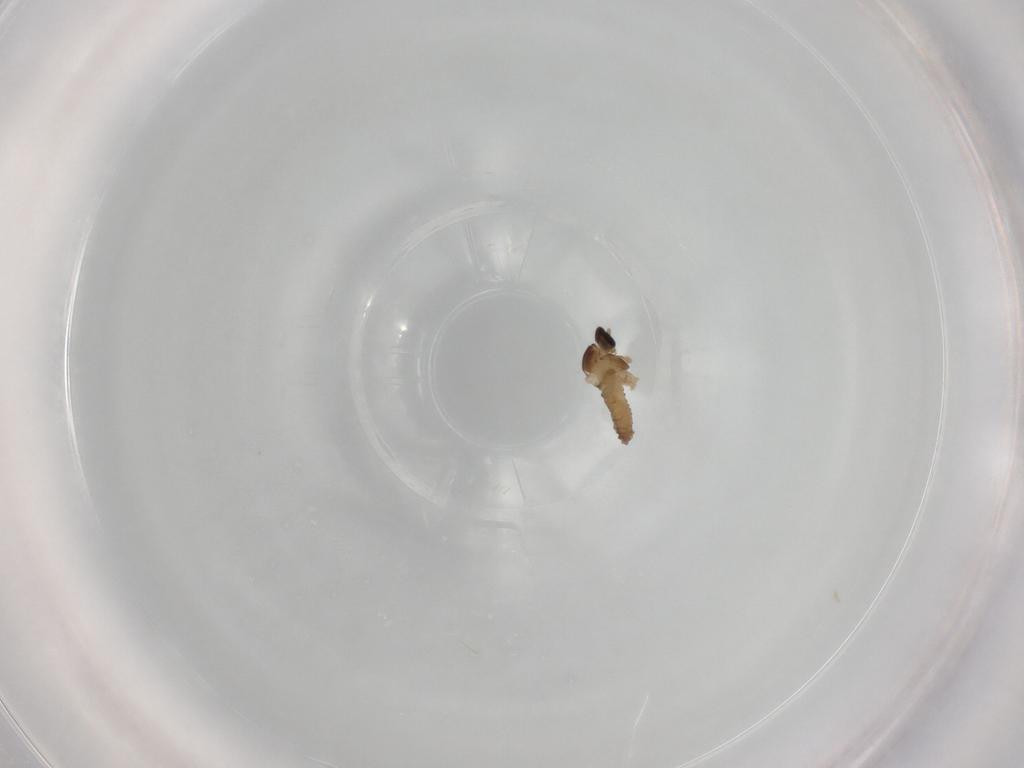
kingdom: Animalia
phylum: Arthropoda
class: Insecta
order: Diptera
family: Cecidomyiidae
